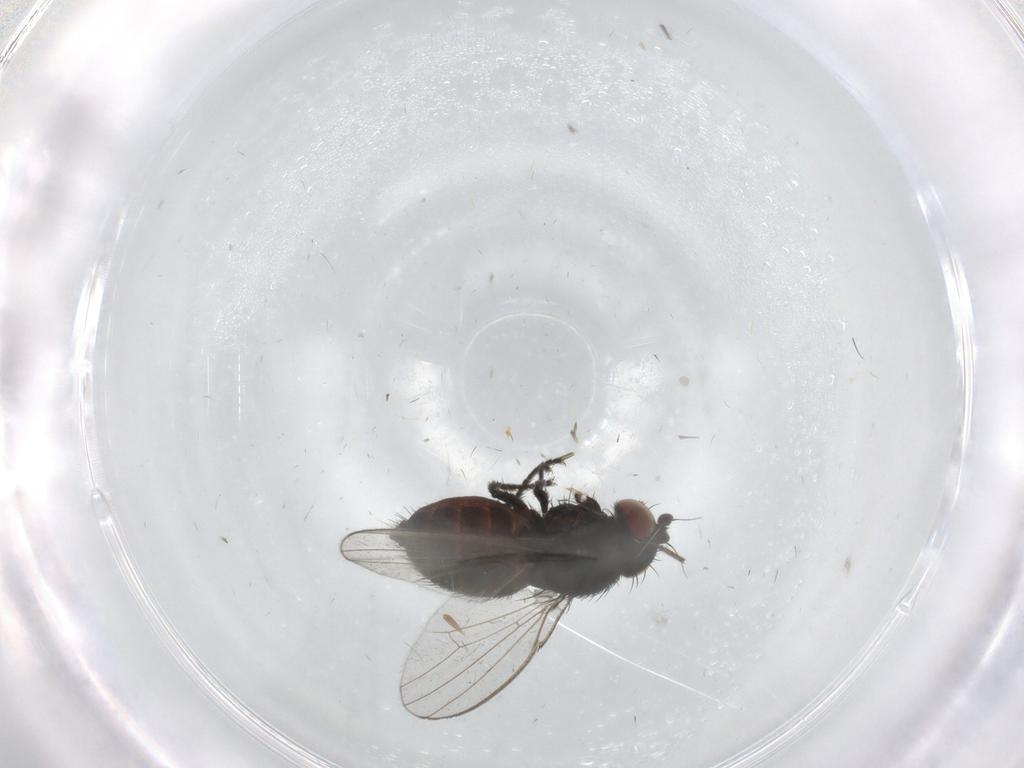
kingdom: Animalia
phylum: Arthropoda
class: Insecta
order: Diptera
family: Milichiidae
